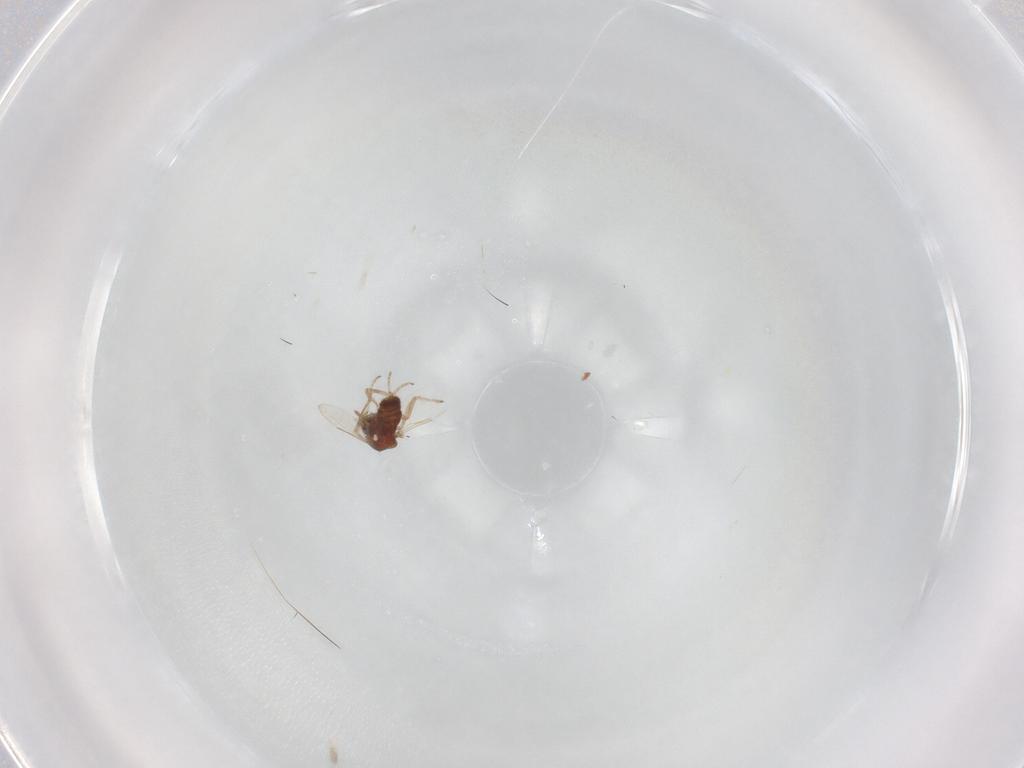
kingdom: Animalia
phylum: Arthropoda
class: Insecta
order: Diptera
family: Ceratopogonidae
